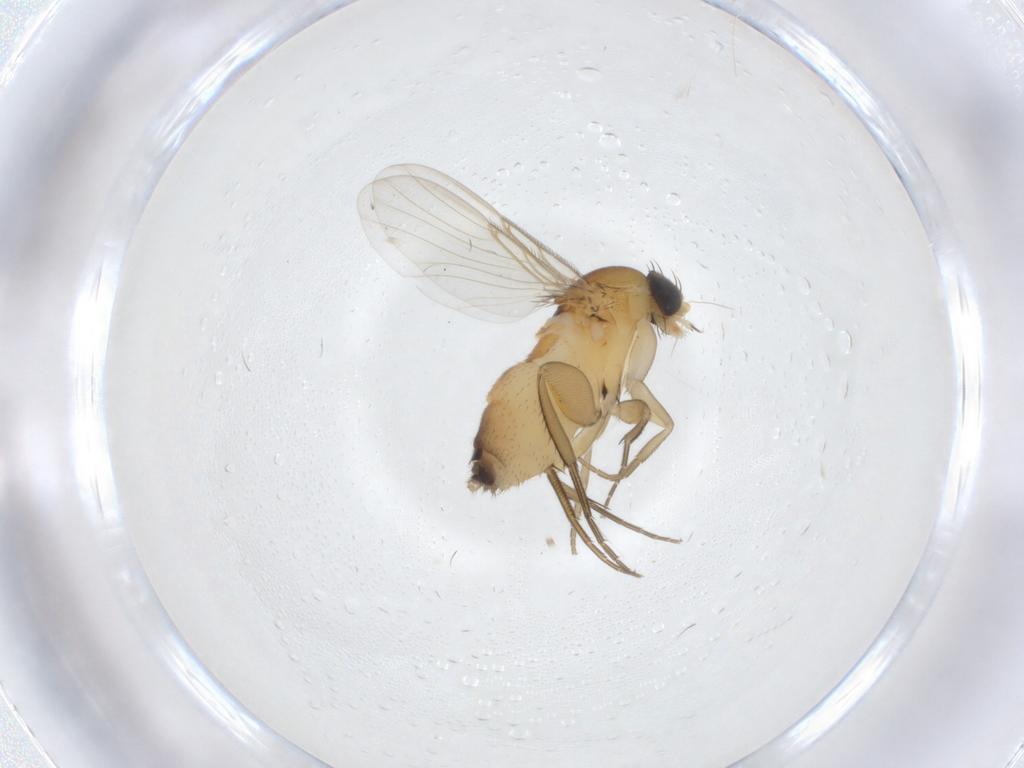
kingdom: Animalia
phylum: Arthropoda
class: Insecta
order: Diptera
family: Phoridae
